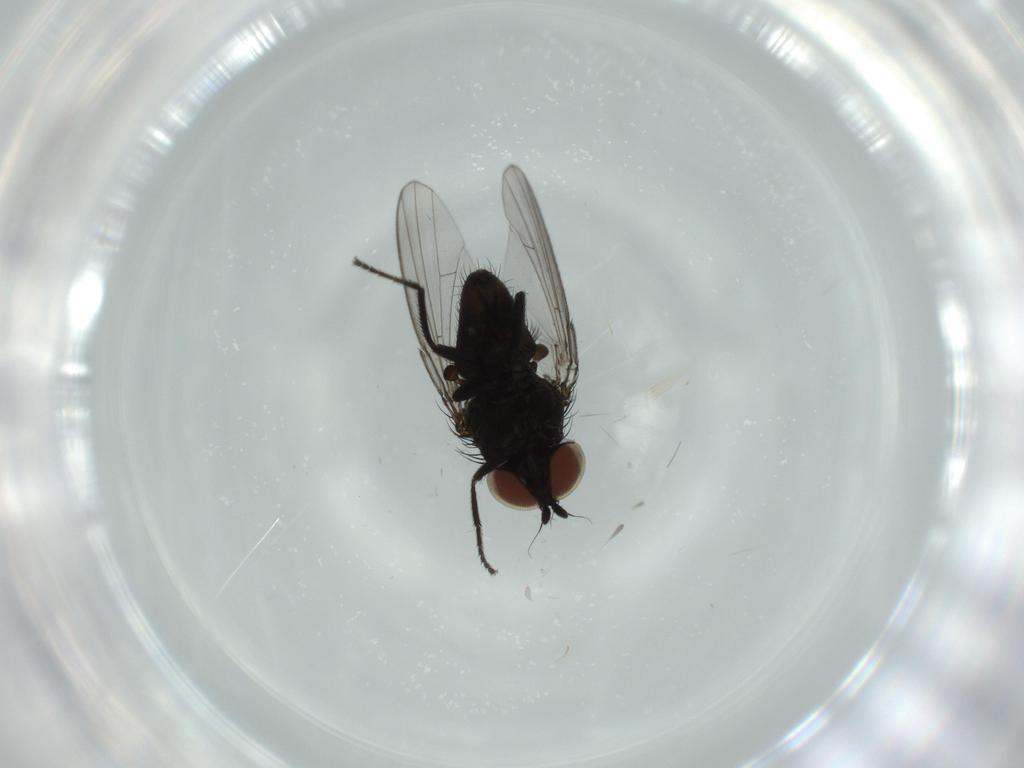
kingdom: Animalia
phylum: Arthropoda
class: Insecta
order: Diptera
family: Milichiidae
